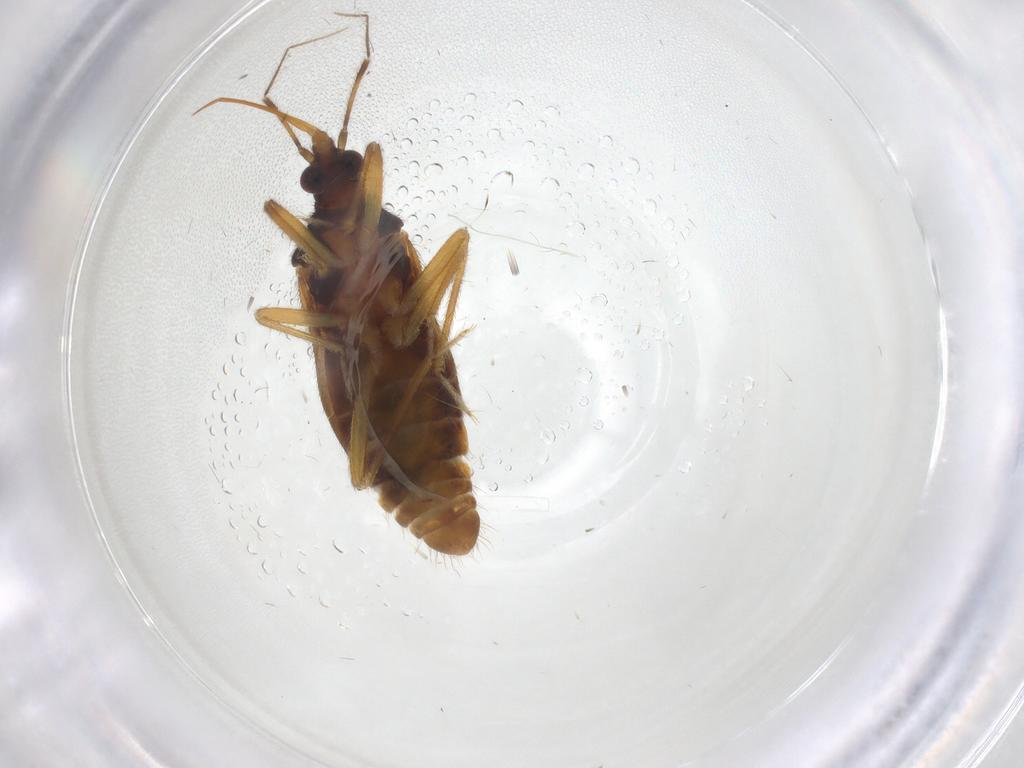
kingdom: Animalia
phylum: Arthropoda
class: Insecta
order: Hemiptera
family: Anthocoridae
